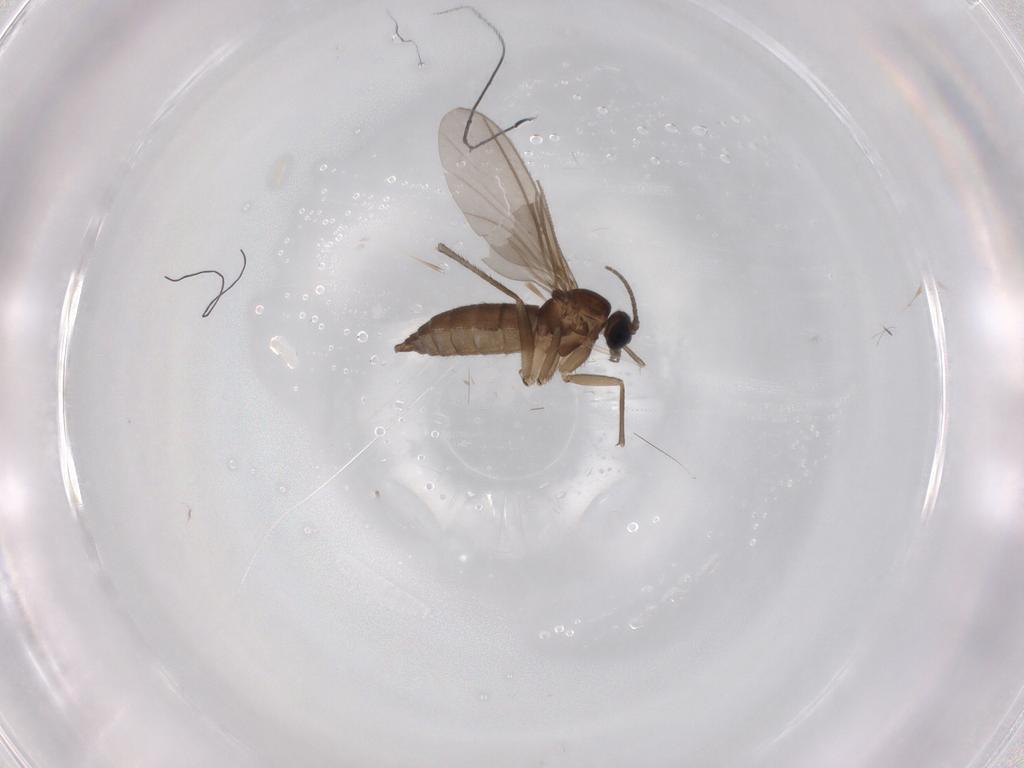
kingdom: Animalia
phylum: Arthropoda
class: Insecta
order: Diptera
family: Sciaridae
